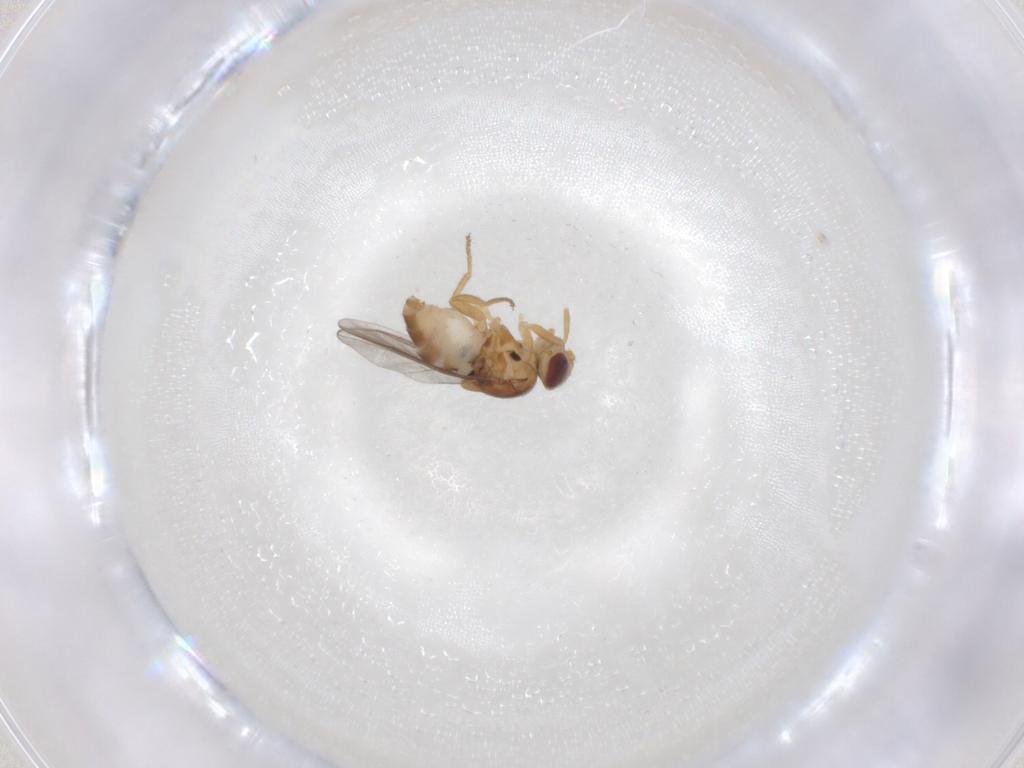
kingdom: Animalia
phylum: Arthropoda
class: Insecta
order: Diptera
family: Chloropidae
